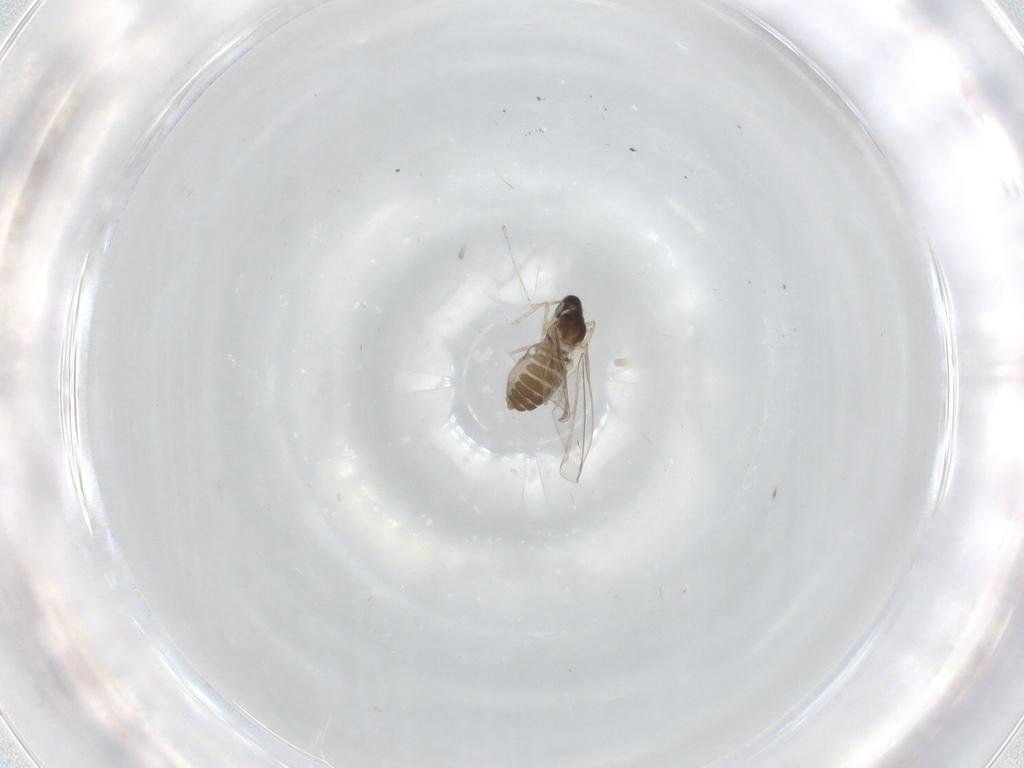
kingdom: Animalia
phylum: Arthropoda
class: Insecta
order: Diptera
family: Cecidomyiidae
